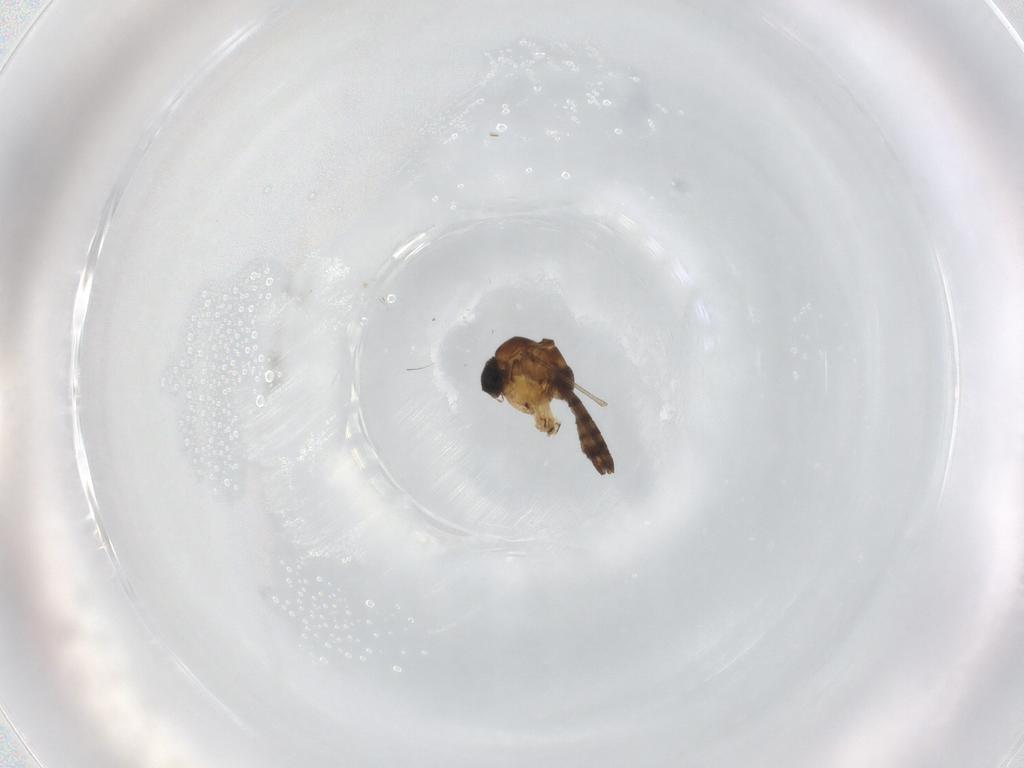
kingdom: Animalia
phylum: Arthropoda
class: Insecta
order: Diptera
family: Sciaridae
